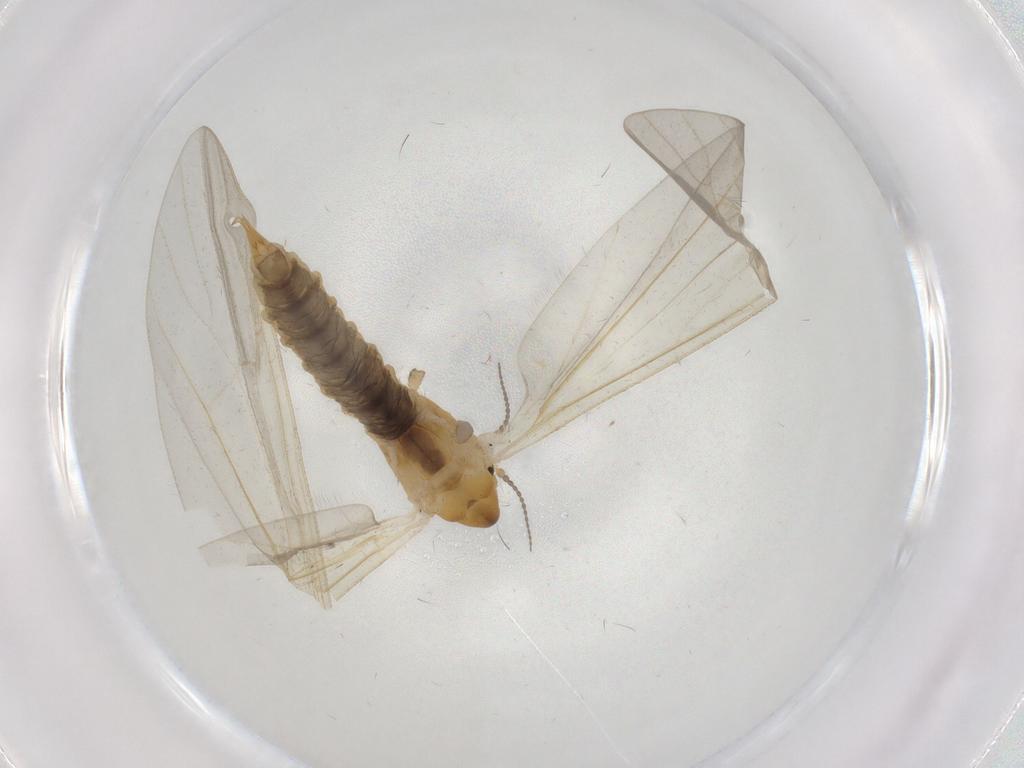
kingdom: Animalia
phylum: Arthropoda
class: Insecta
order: Diptera
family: Limoniidae
